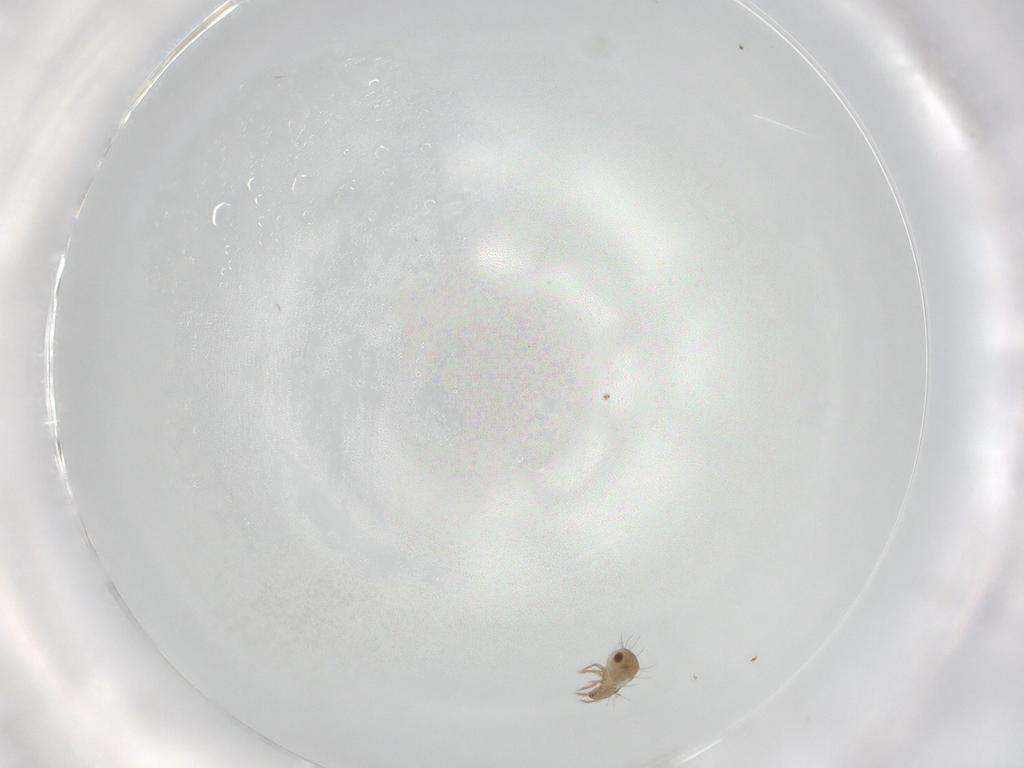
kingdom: Animalia
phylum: Arthropoda
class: Arachnida
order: Sarcoptiformes
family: Humerobatidae
